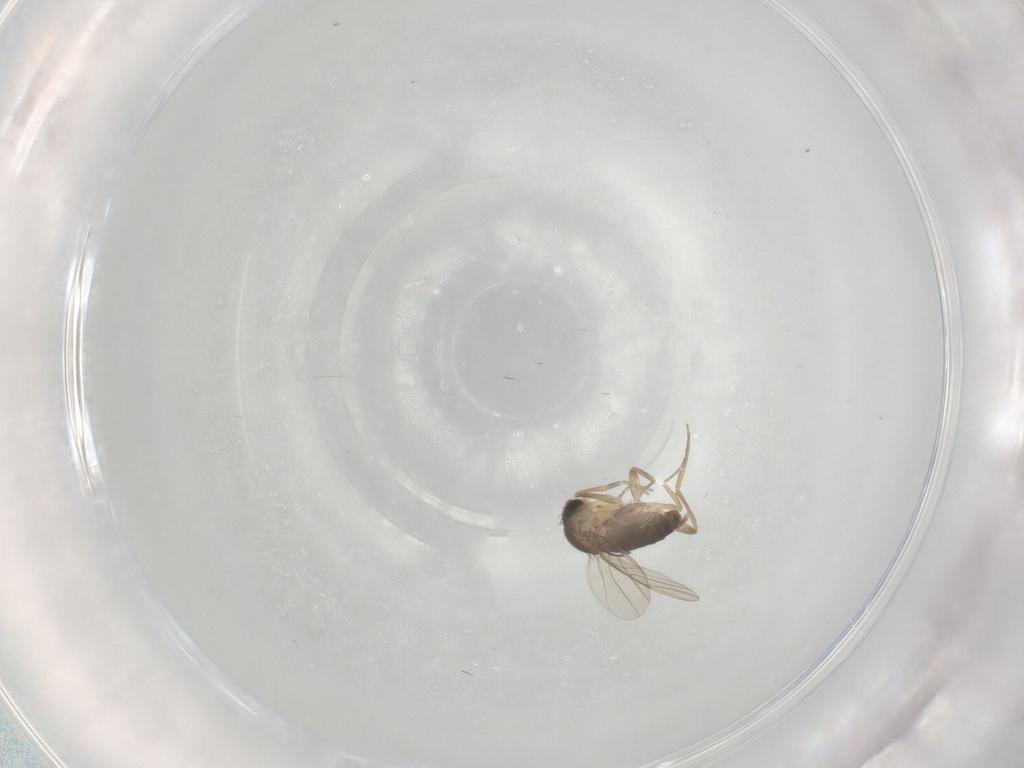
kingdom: Animalia
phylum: Arthropoda
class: Insecta
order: Diptera
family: Phoridae
